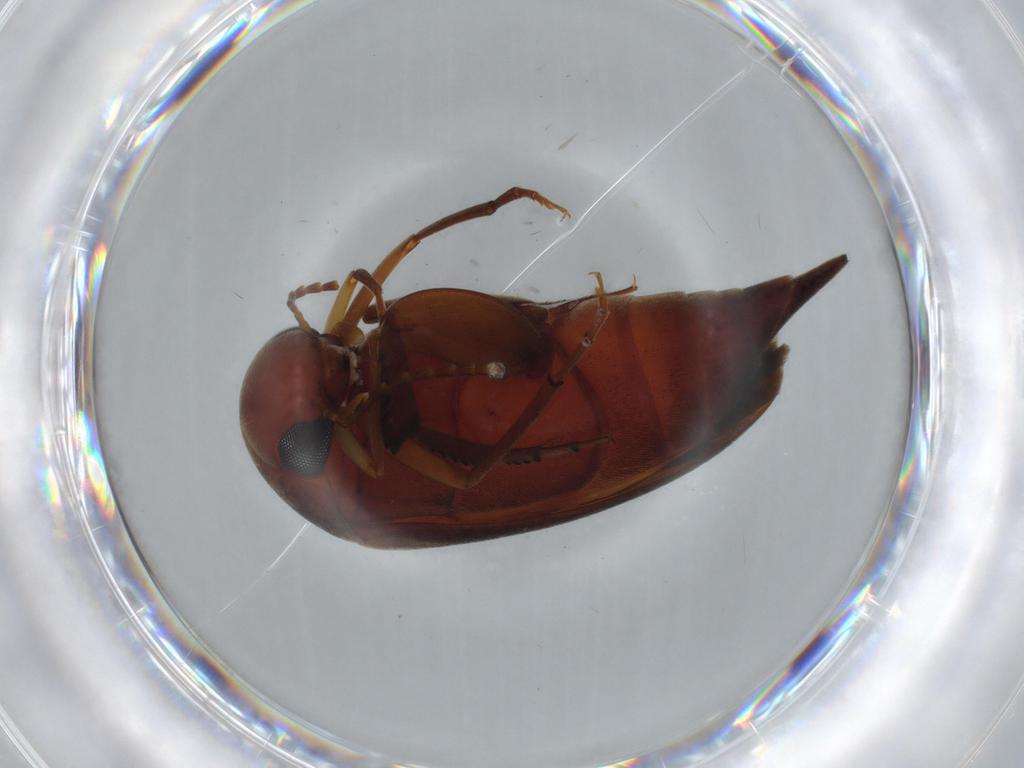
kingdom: Animalia
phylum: Arthropoda
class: Insecta
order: Coleoptera
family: Mordellidae
